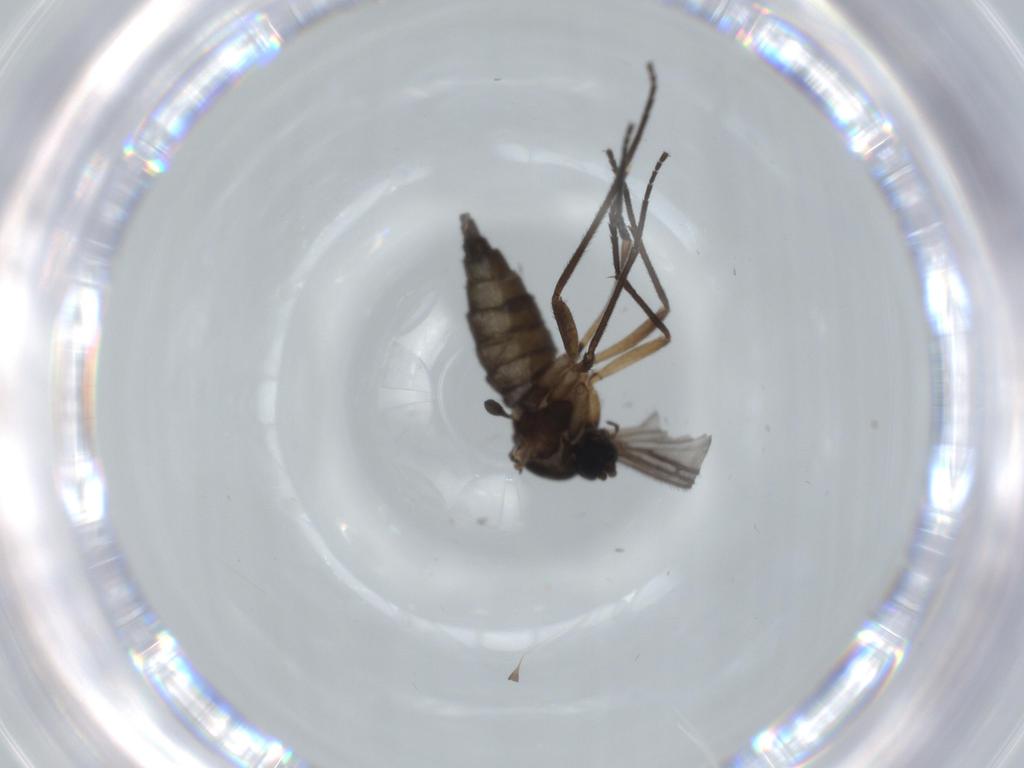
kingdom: Animalia
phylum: Arthropoda
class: Insecta
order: Diptera
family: Sciaridae
